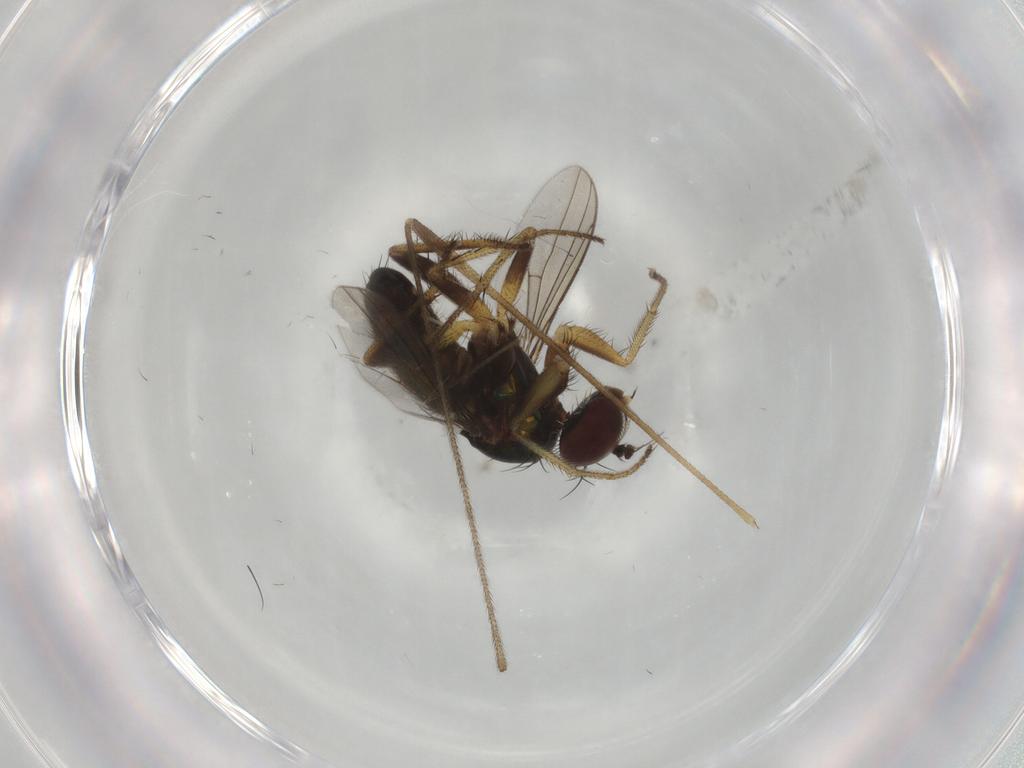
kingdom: Animalia
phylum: Arthropoda
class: Insecta
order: Diptera
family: Dolichopodidae
